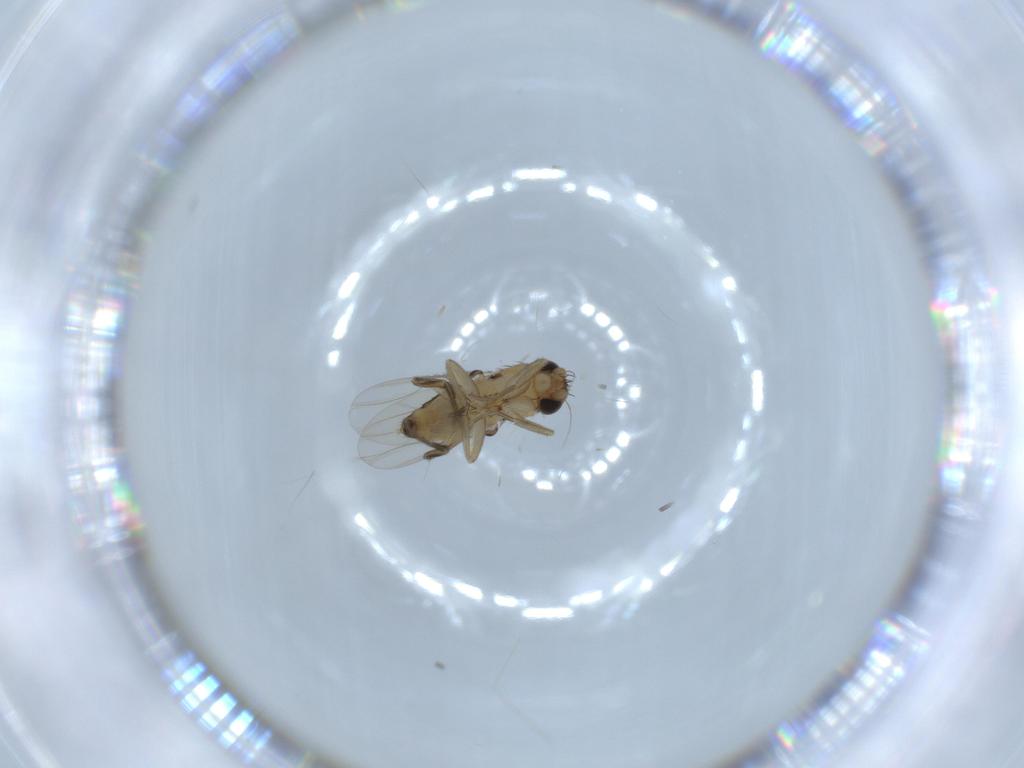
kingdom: Animalia
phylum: Arthropoda
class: Insecta
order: Diptera
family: Phoridae
